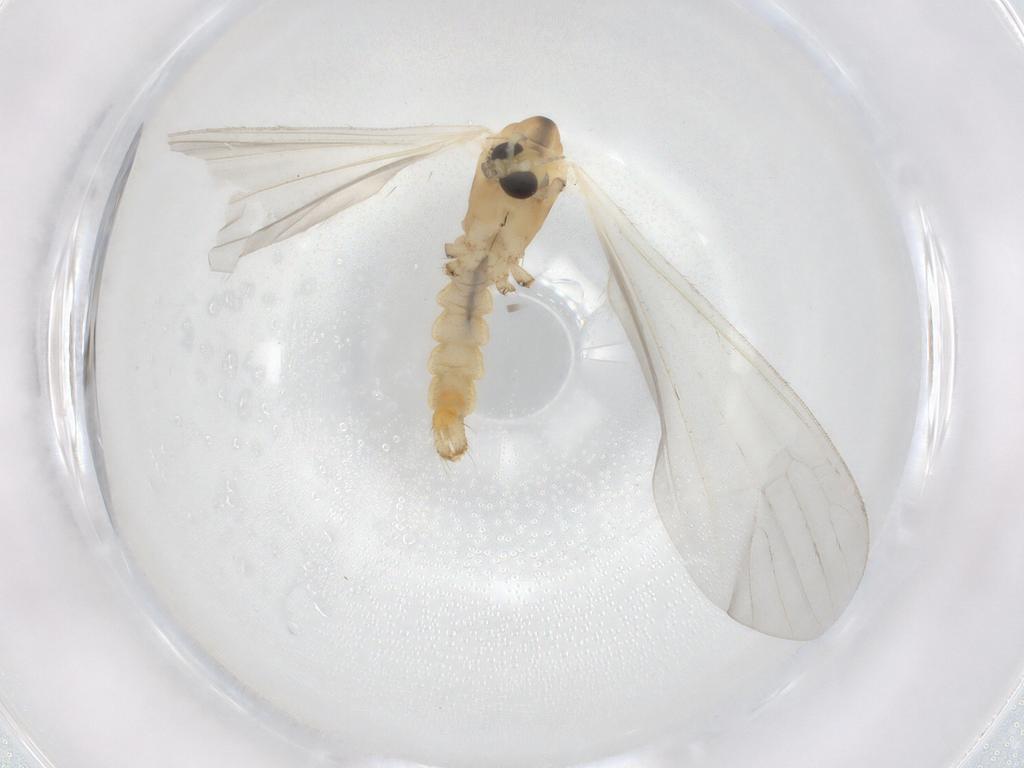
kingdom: Animalia
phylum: Arthropoda
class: Insecta
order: Diptera
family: Limoniidae
